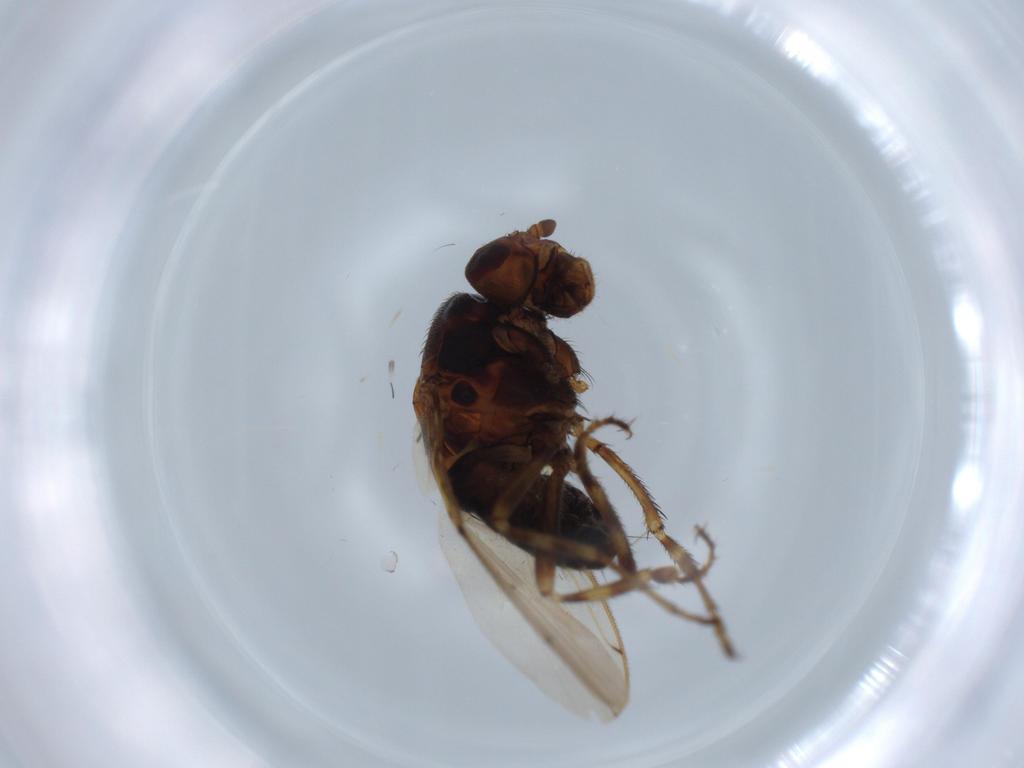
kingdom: Animalia
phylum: Arthropoda
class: Insecta
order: Diptera
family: Sphaeroceridae
